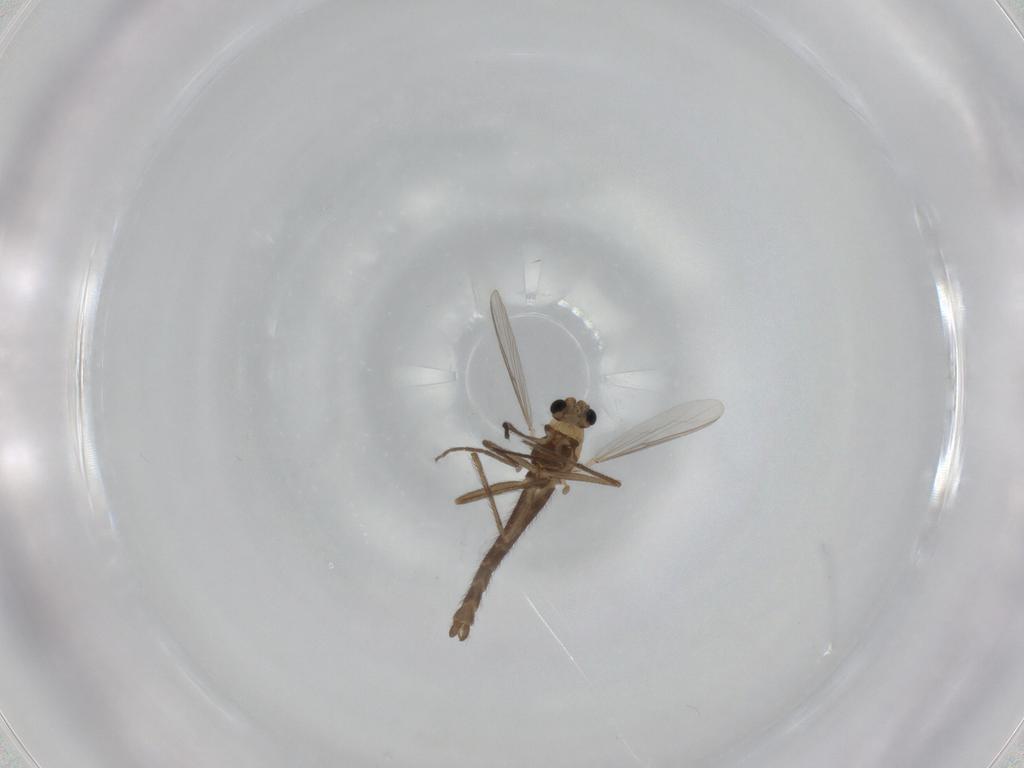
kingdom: Animalia
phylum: Arthropoda
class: Insecta
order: Diptera
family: Chironomidae
